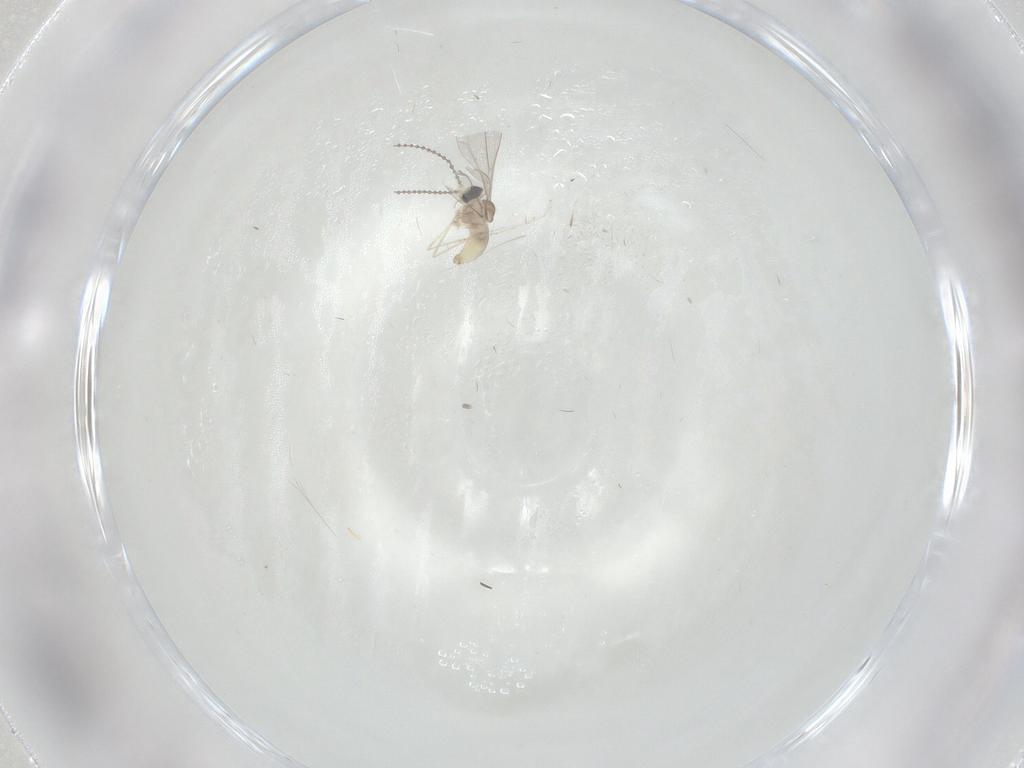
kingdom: Animalia
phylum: Arthropoda
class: Insecta
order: Diptera
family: Cecidomyiidae
